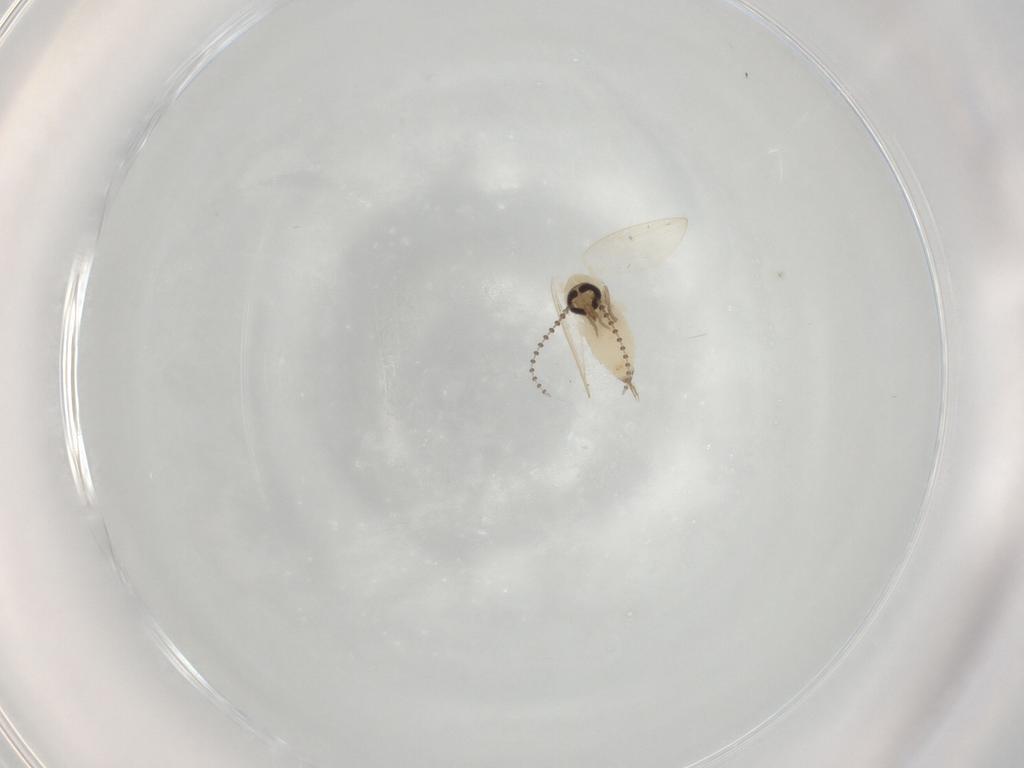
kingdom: Animalia
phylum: Arthropoda
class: Insecta
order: Diptera
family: Psychodidae
